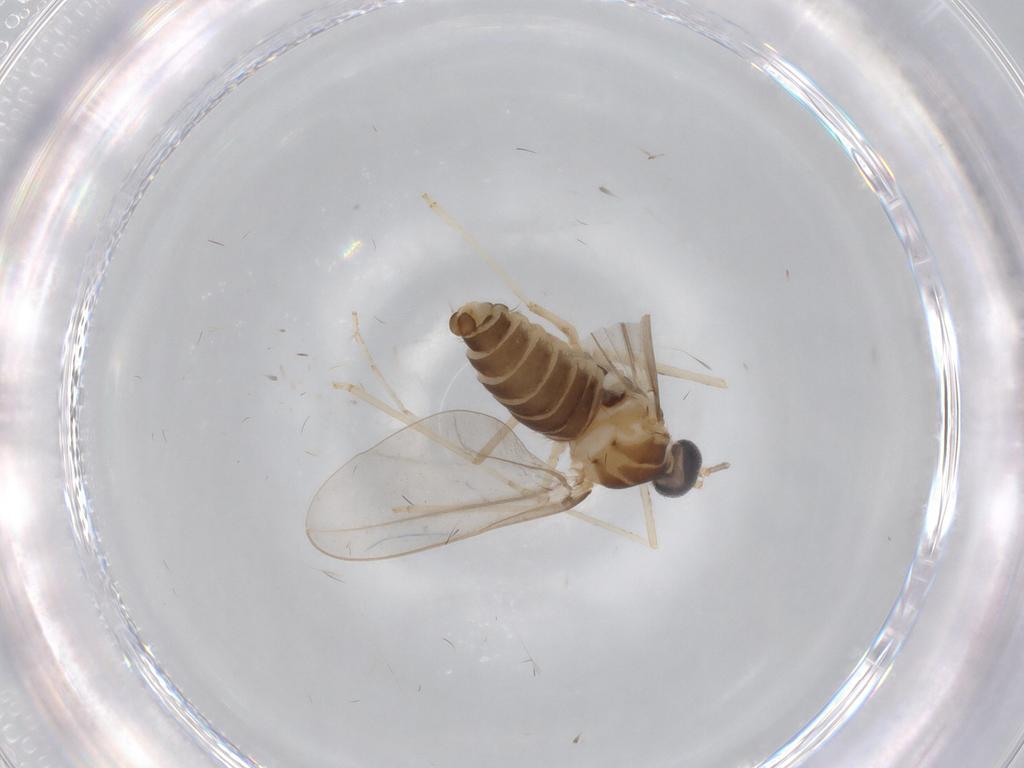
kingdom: Animalia
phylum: Arthropoda
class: Insecta
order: Diptera
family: Cecidomyiidae
